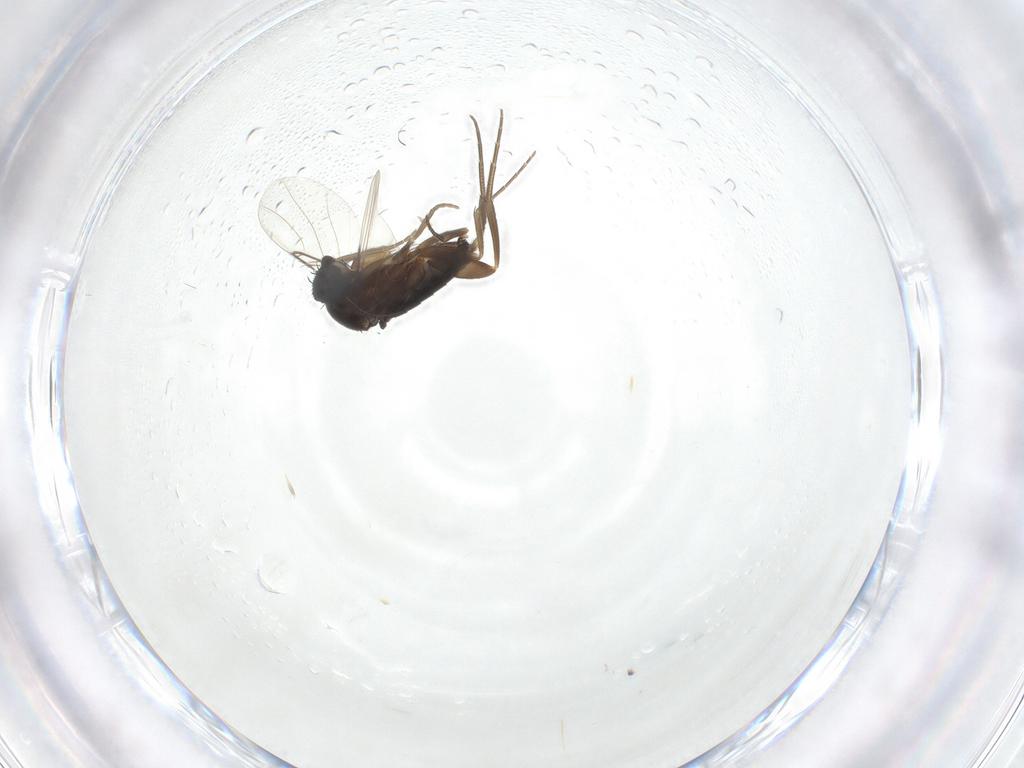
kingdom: Animalia
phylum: Arthropoda
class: Insecta
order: Diptera
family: Phoridae
